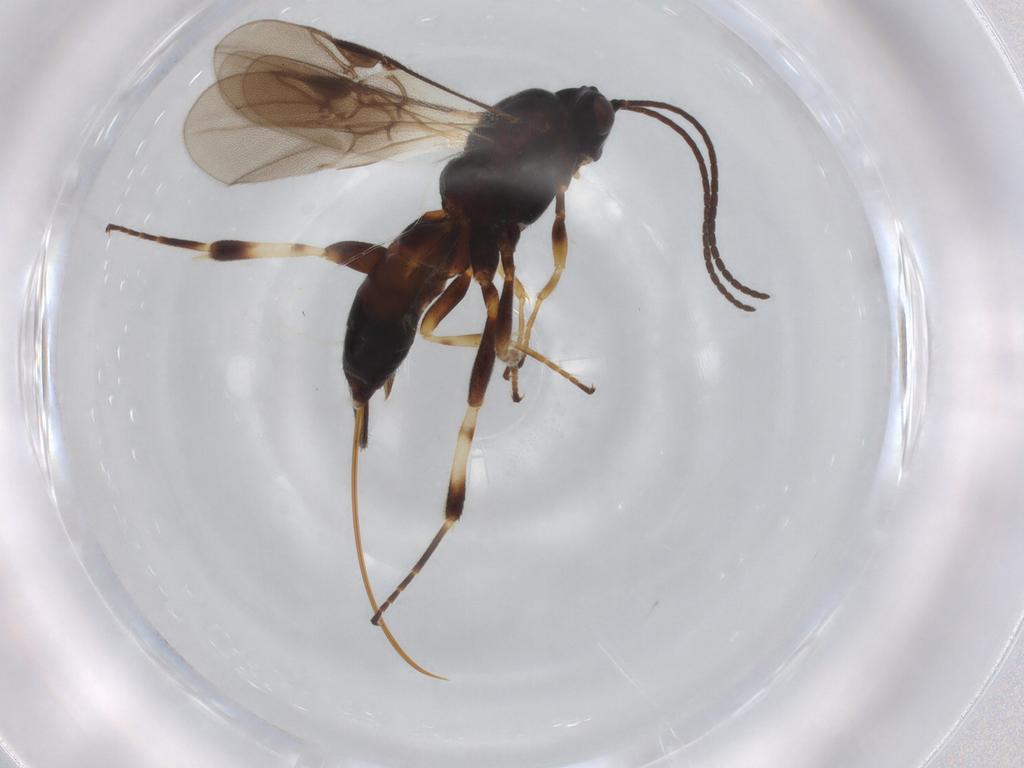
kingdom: Animalia
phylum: Arthropoda
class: Insecta
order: Hymenoptera
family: Braconidae
